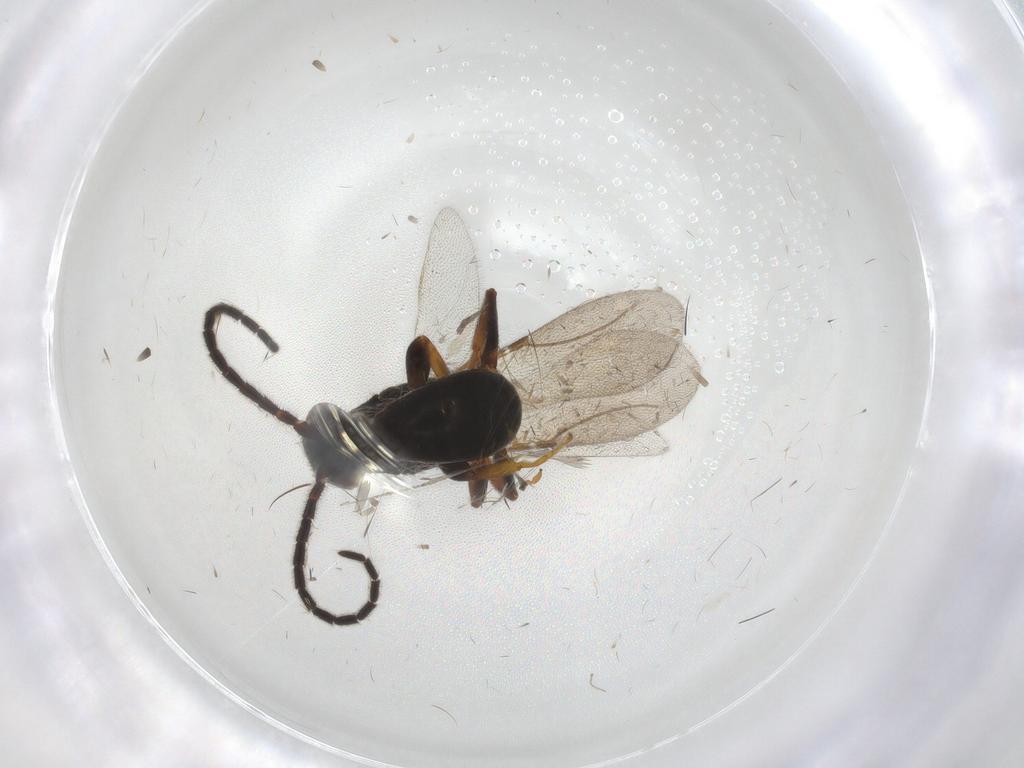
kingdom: Animalia
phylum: Arthropoda
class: Insecta
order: Hymenoptera
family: Bethylidae
